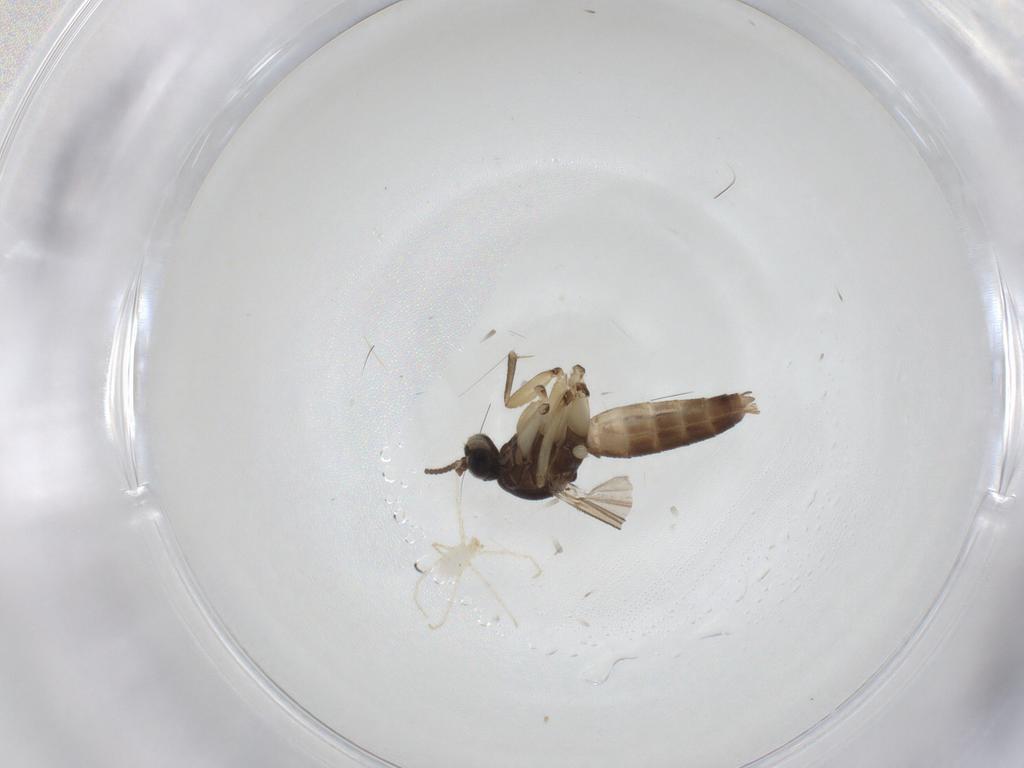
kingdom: Animalia
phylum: Arthropoda
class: Arachnida
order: Trombidiformes
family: Erythraeidae
